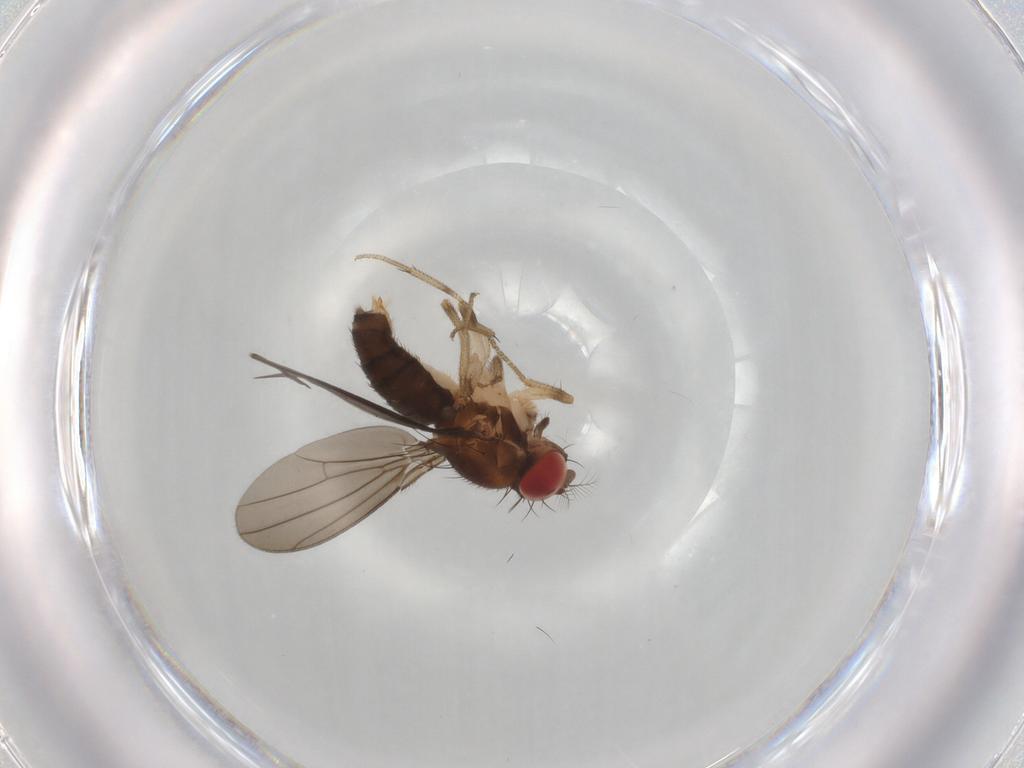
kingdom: Animalia
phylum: Arthropoda
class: Insecta
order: Diptera
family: Drosophilidae
